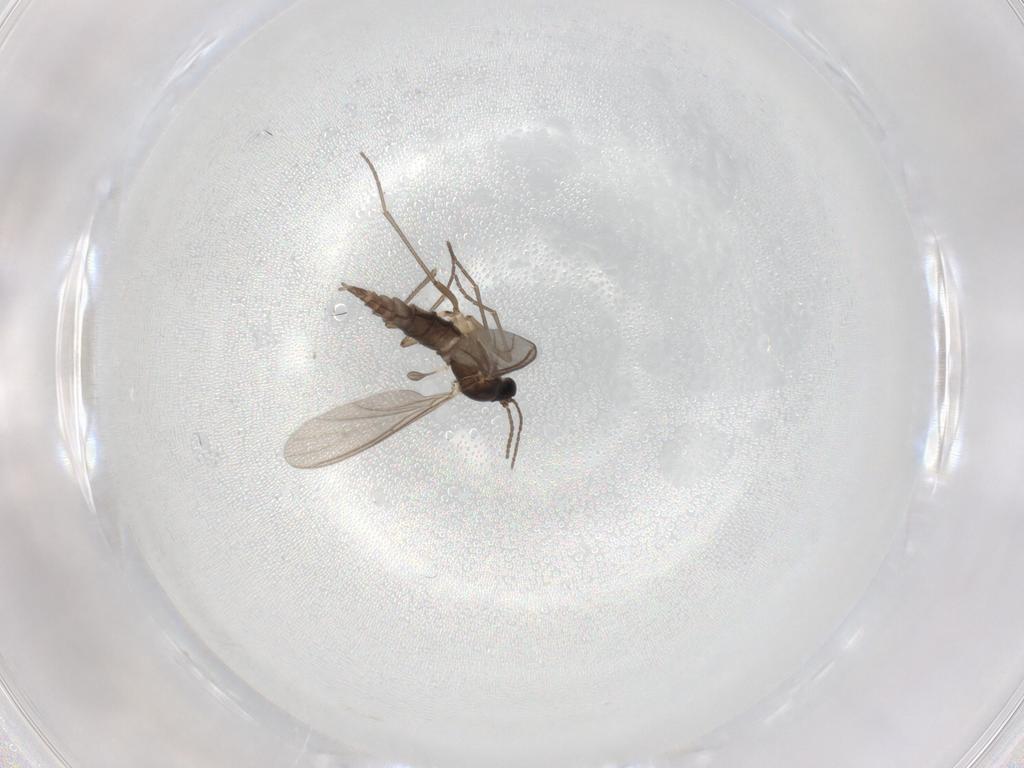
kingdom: Animalia
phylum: Arthropoda
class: Insecta
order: Diptera
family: Sciaridae
